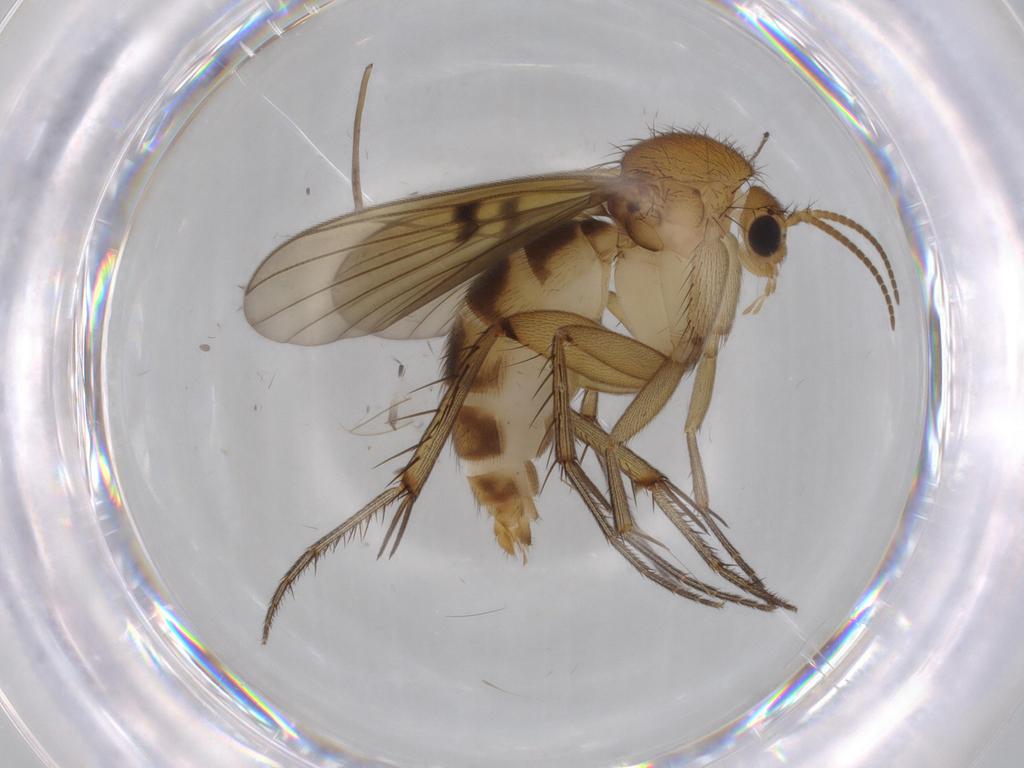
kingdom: Animalia
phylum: Arthropoda
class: Insecta
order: Diptera
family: Mycetophilidae
